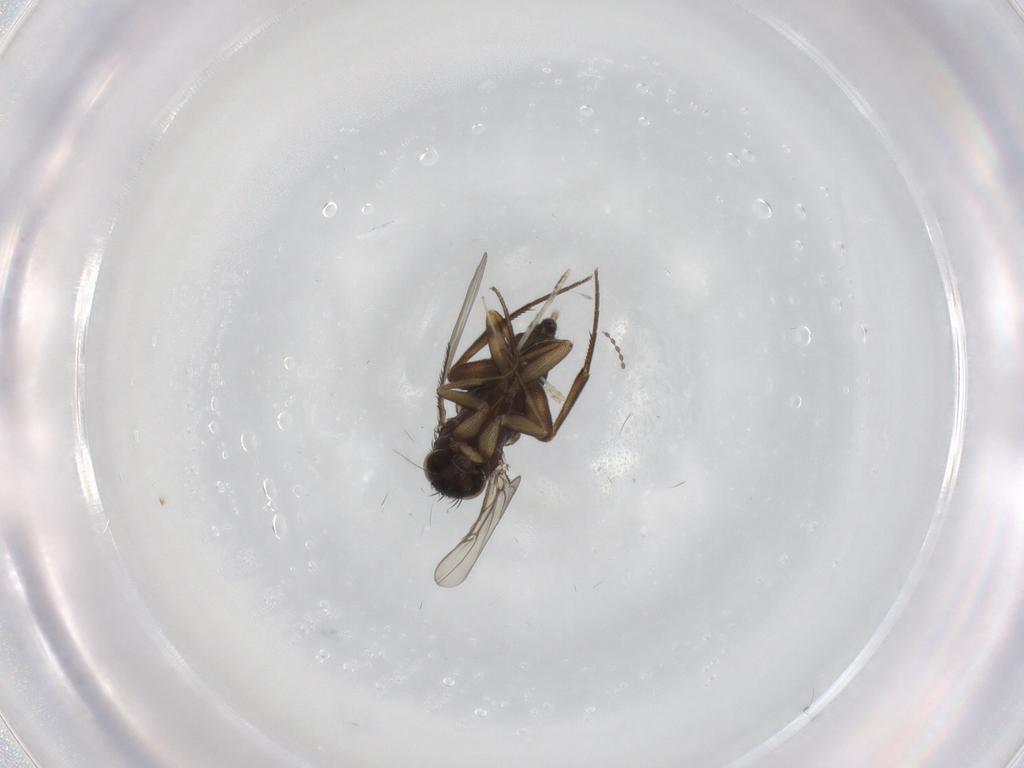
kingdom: Animalia
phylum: Arthropoda
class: Insecta
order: Diptera
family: Phoridae
